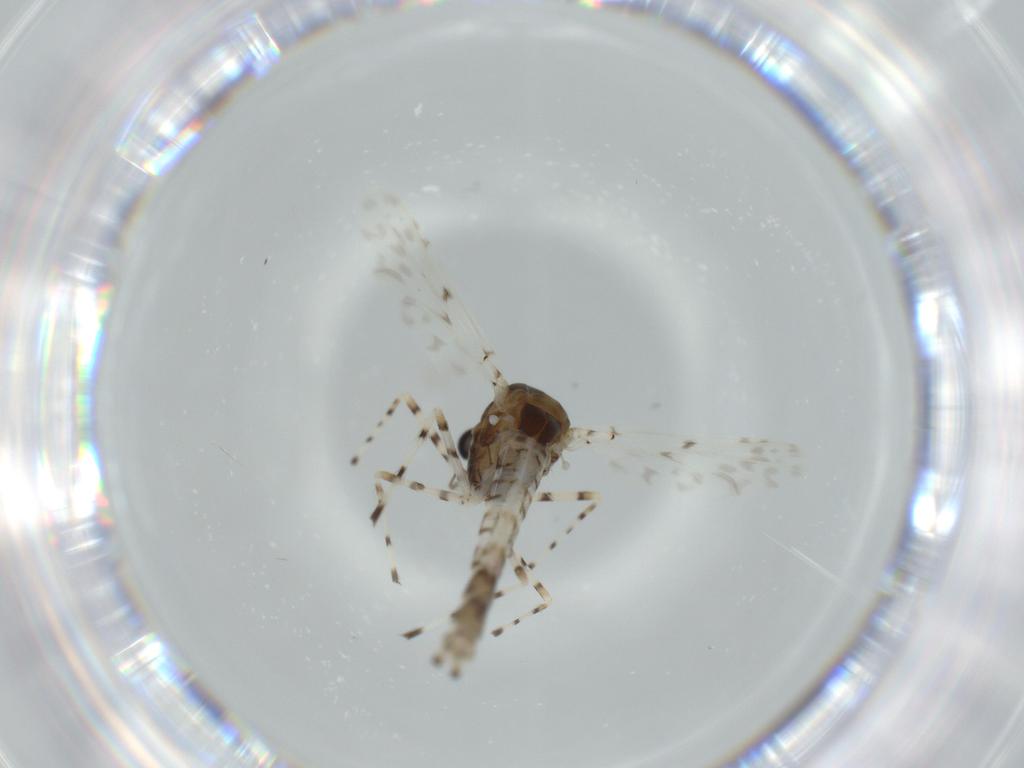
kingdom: Animalia
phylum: Arthropoda
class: Insecta
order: Diptera
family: Chironomidae
